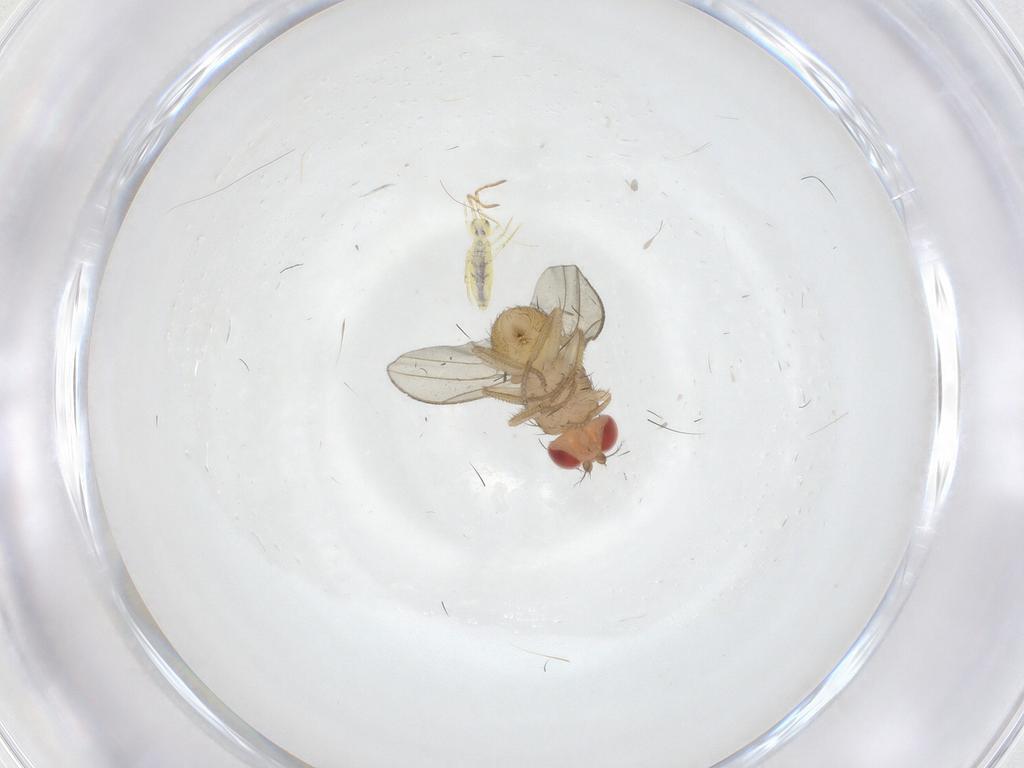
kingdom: Animalia
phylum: Arthropoda
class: Insecta
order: Diptera
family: Drosophilidae
